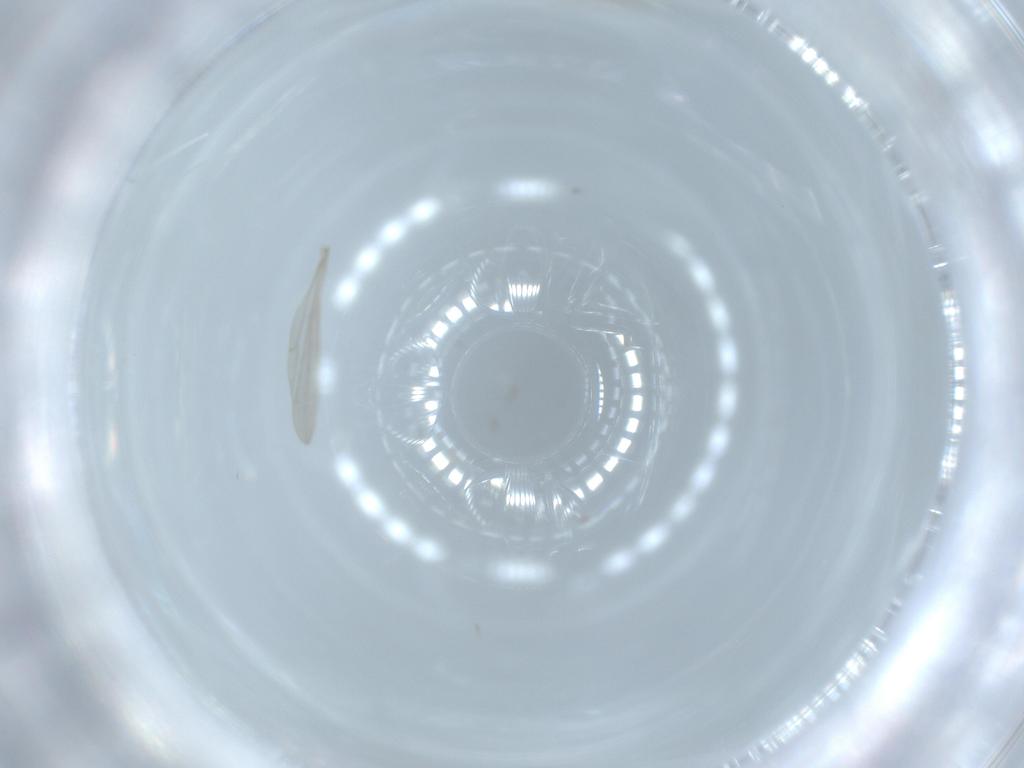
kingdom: Animalia
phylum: Arthropoda
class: Insecta
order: Diptera
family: Cecidomyiidae
